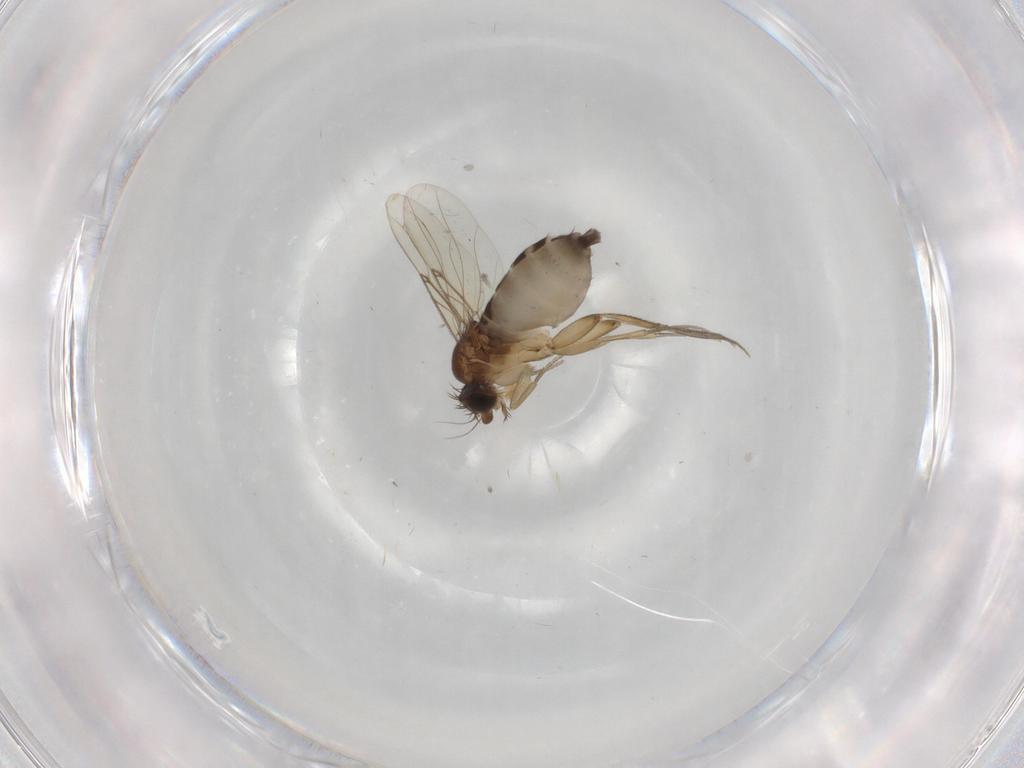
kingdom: Animalia
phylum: Arthropoda
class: Insecta
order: Diptera
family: Phoridae
